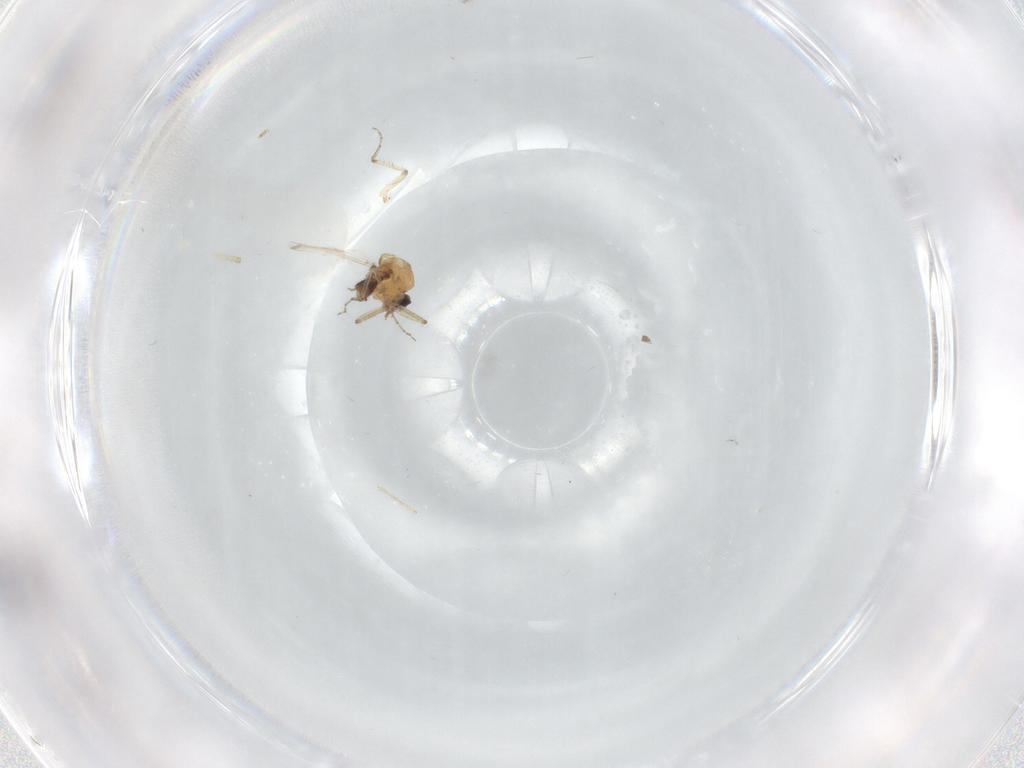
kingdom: Animalia
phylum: Arthropoda
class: Insecta
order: Diptera
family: Ceratopogonidae
